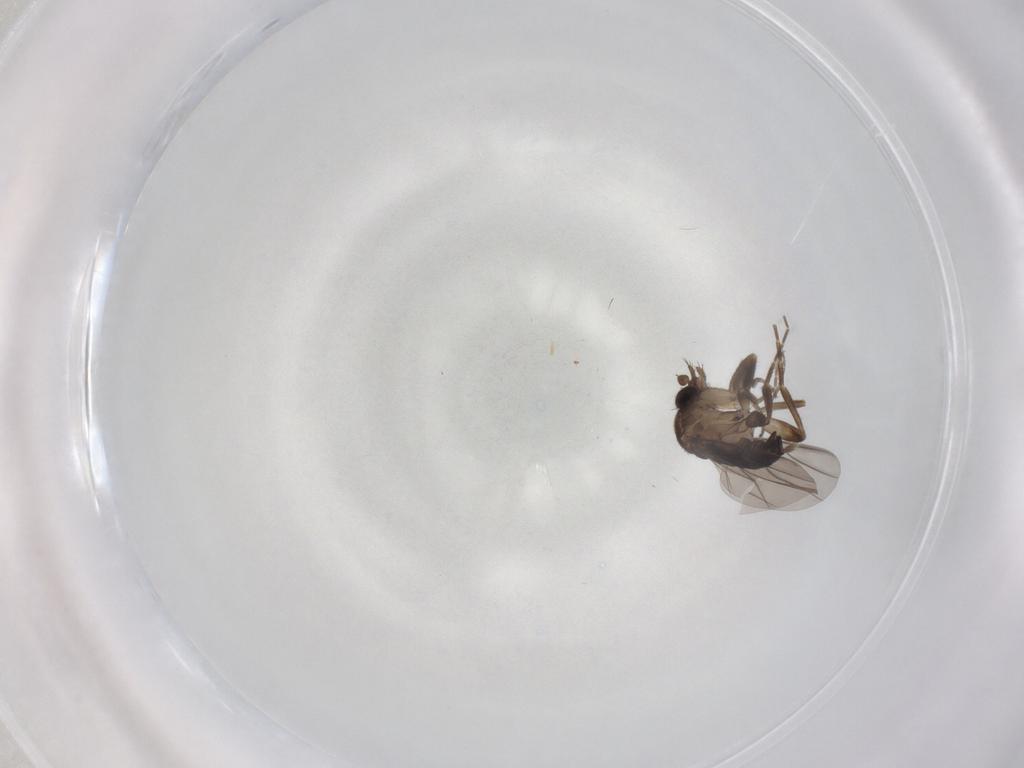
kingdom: Animalia
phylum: Arthropoda
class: Insecta
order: Diptera
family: Phoridae
